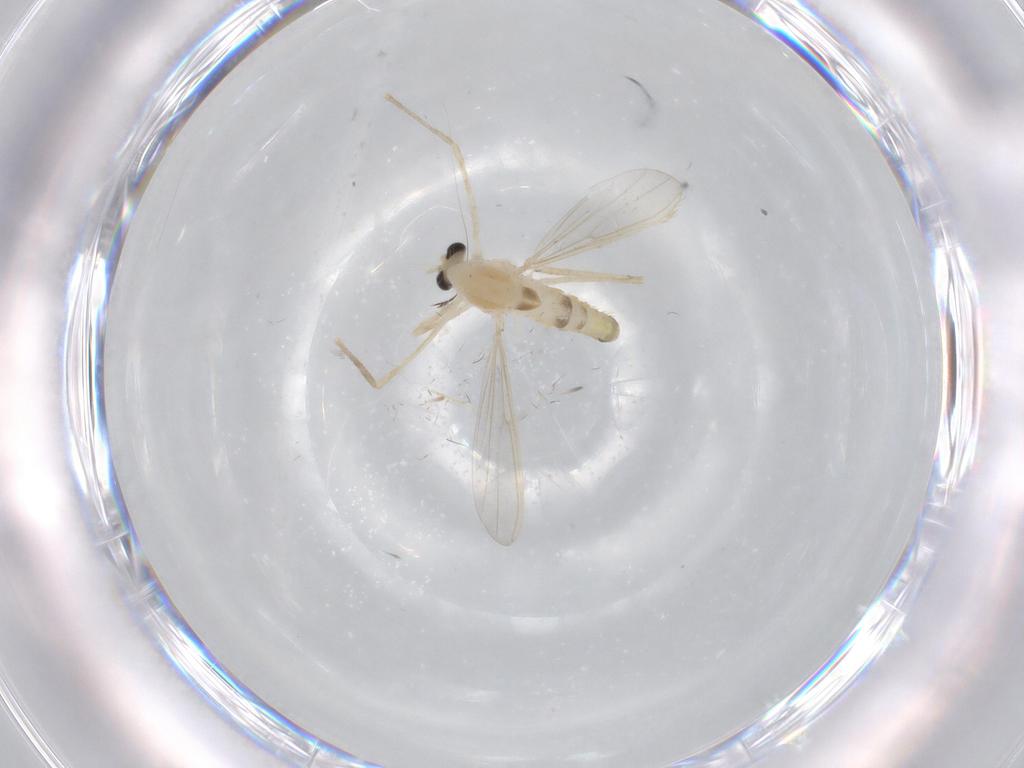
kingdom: Animalia
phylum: Arthropoda
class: Insecta
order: Diptera
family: Chironomidae
